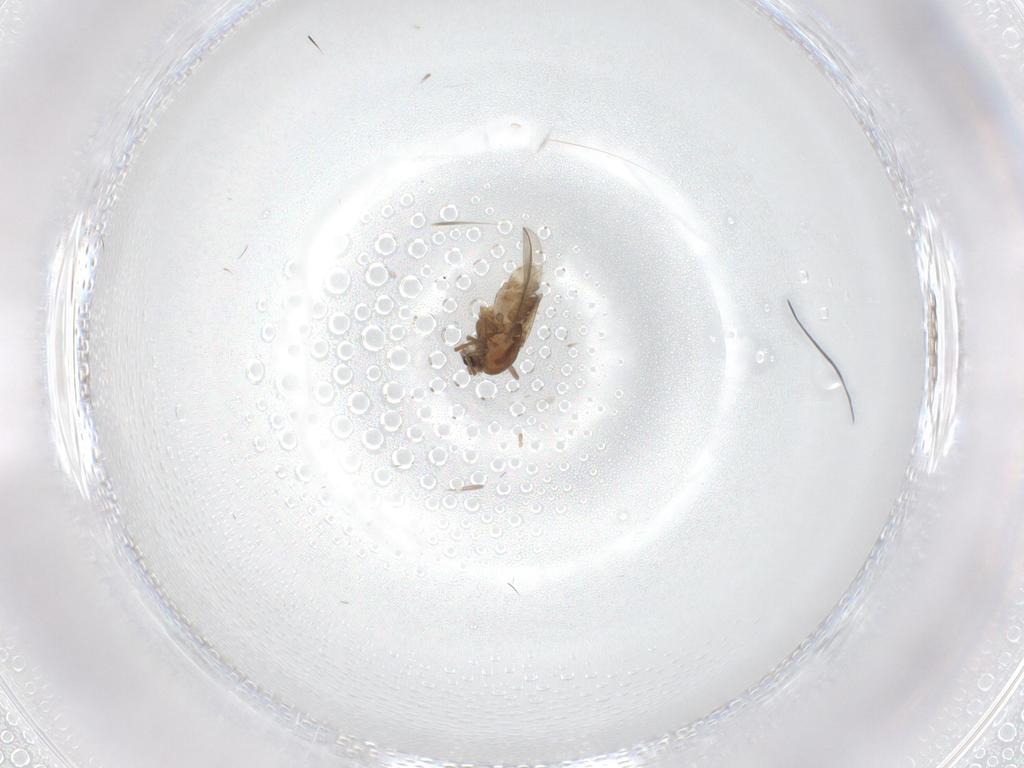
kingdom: Animalia
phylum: Arthropoda
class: Insecta
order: Diptera
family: Chironomidae
